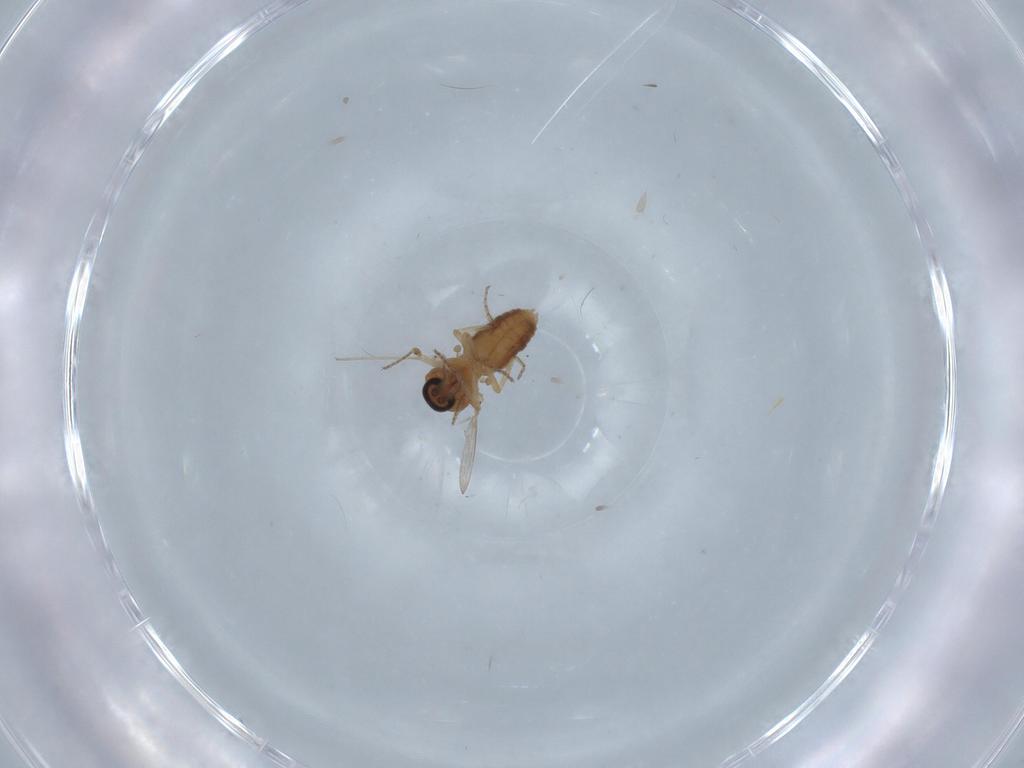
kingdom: Animalia
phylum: Arthropoda
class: Insecta
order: Diptera
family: Ceratopogonidae
